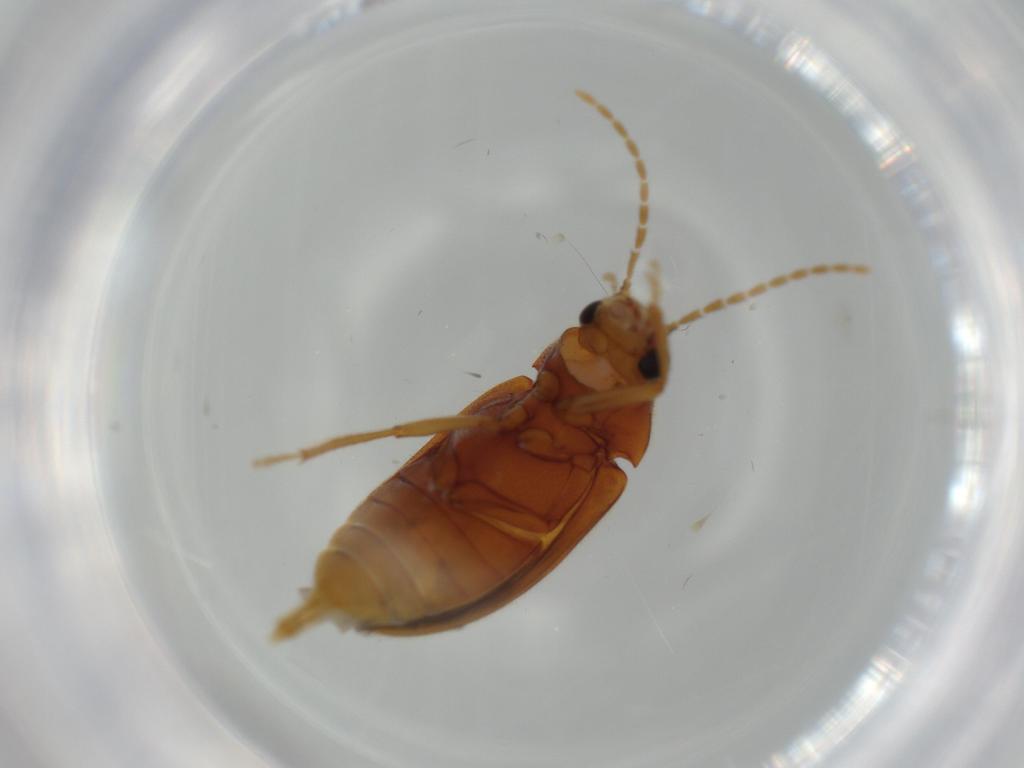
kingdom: Animalia
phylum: Arthropoda
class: Insecta
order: Coleoptera
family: Ptilodactylidae
